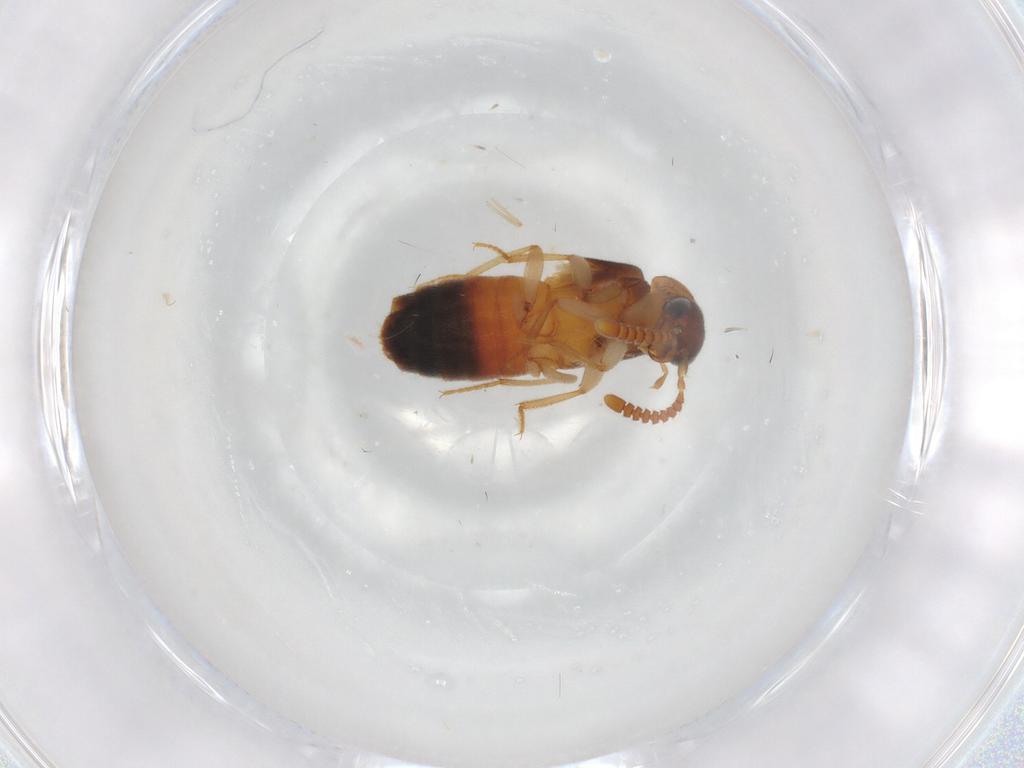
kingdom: Animalia
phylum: Arthropoda
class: Insecta
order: Coleoptera
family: Staphylinidae
